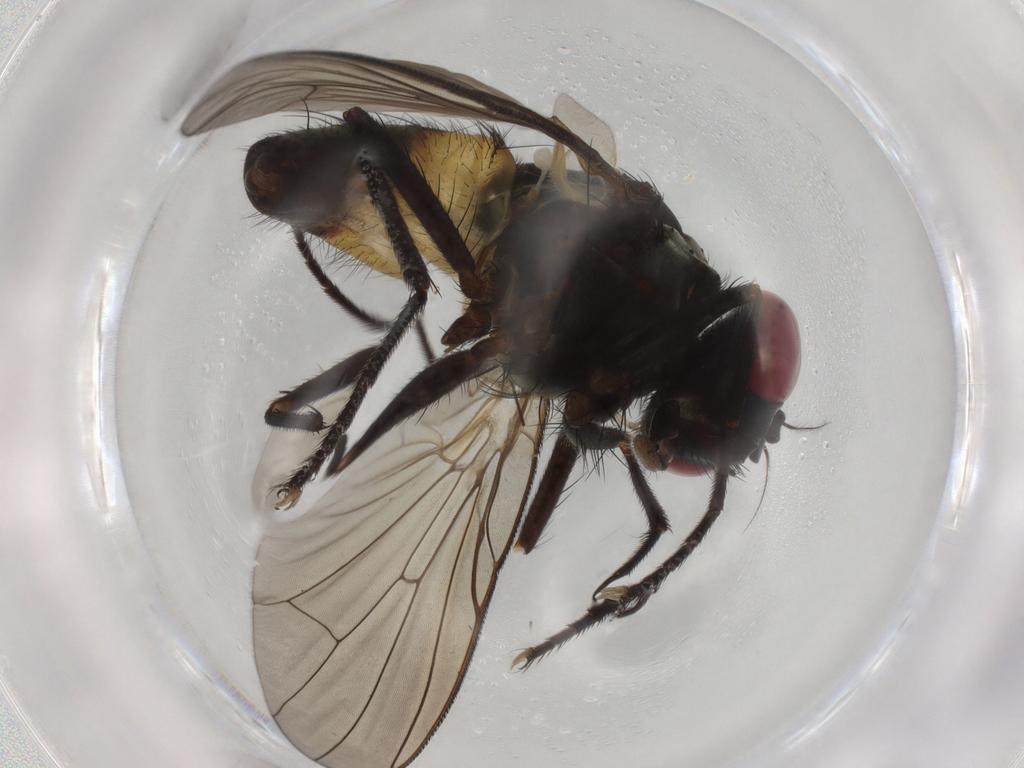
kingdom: Animalia
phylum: Arthropoda
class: Insecta
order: Diptera
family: Muscidae
